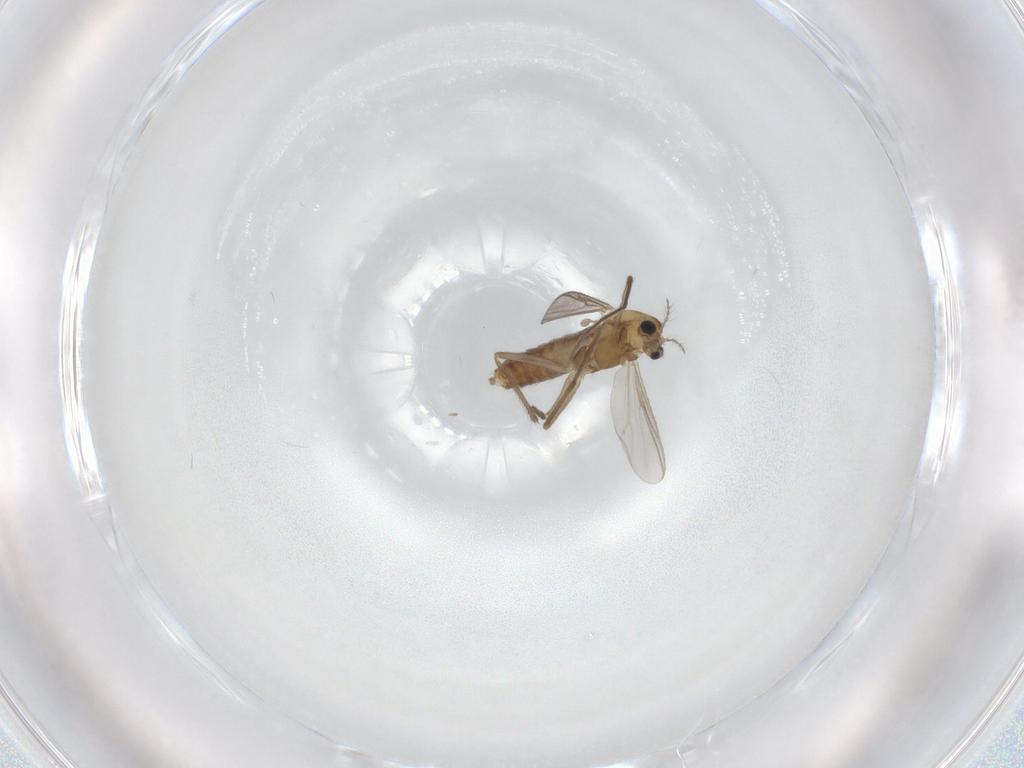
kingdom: Animalia
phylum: Arthropoda
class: Insecta
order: Diptera
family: Chironomidae
